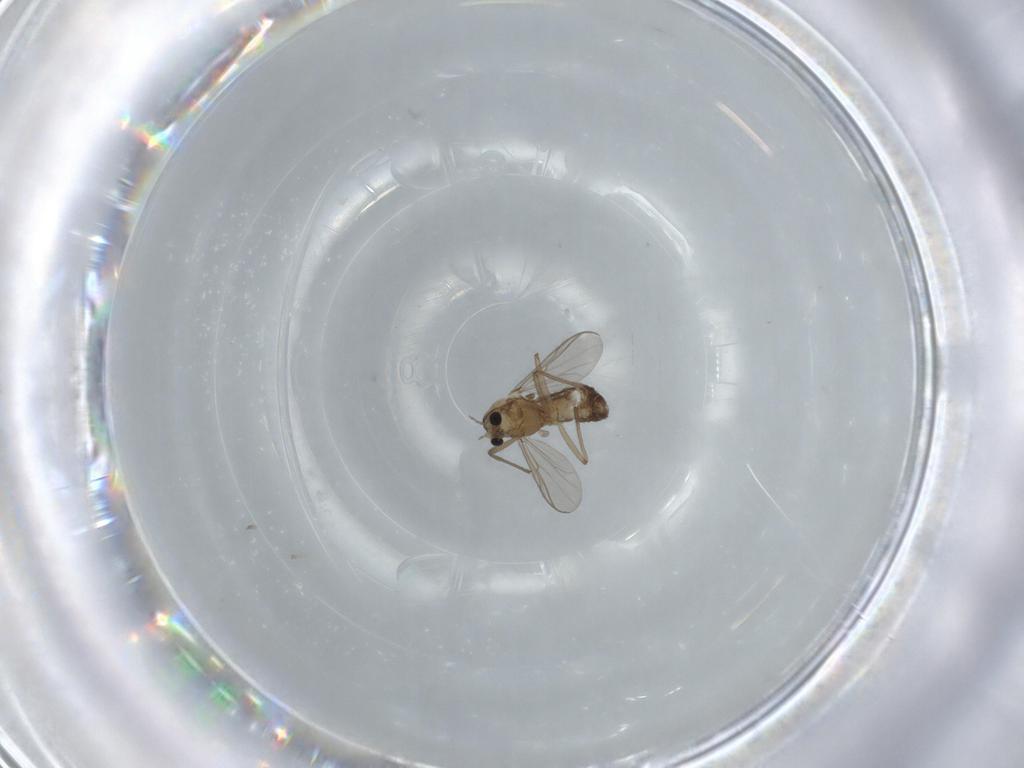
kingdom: Animalia
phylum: Arthropoda
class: Insecta
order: Diptera
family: Chironomidae
